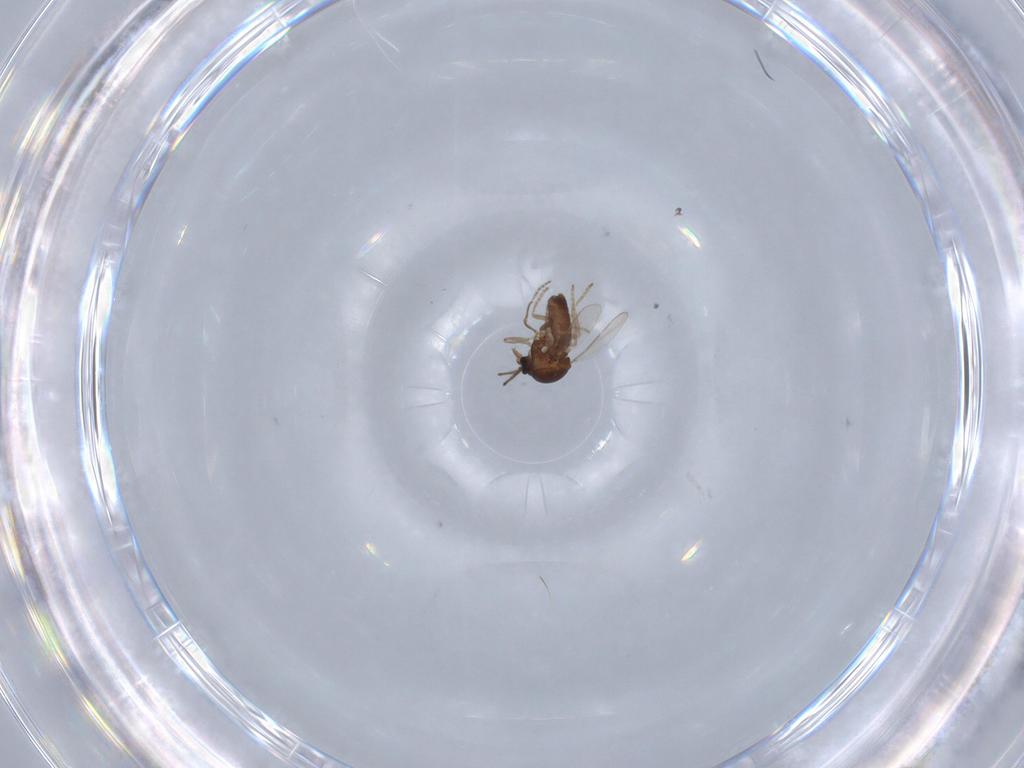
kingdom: Animalia
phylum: Arthropoda
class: Insecta
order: Diptera
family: Ceratopogonidae
